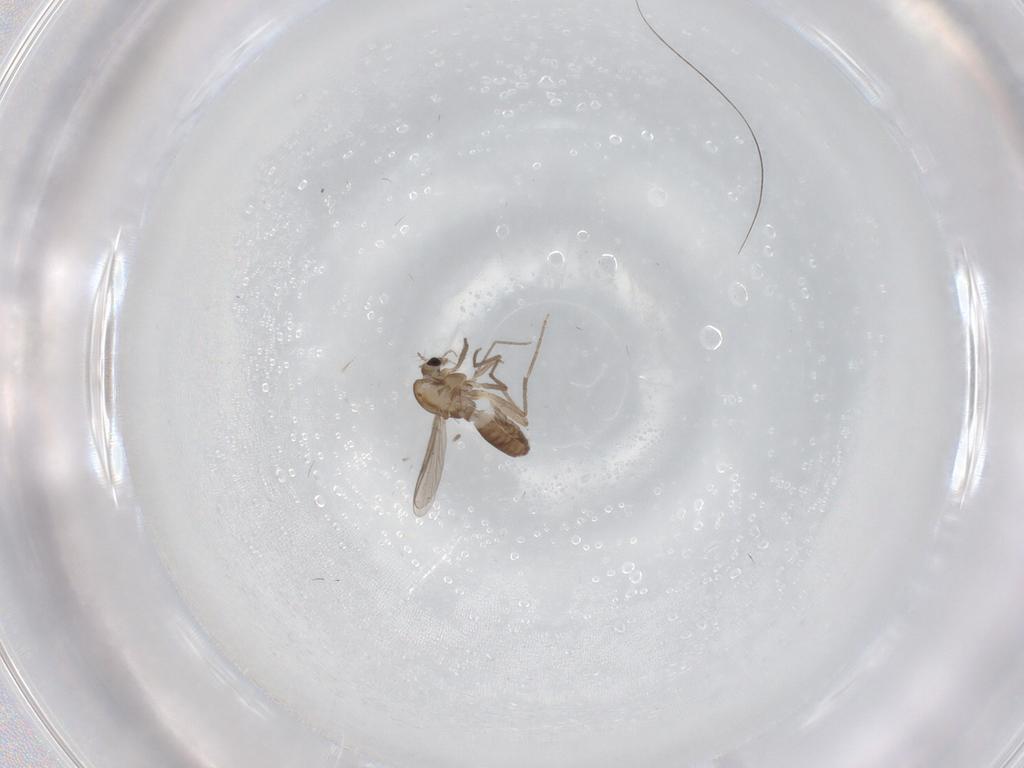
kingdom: Animalia
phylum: Arthropoda
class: Insecta
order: Diptera
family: Chironomidae
